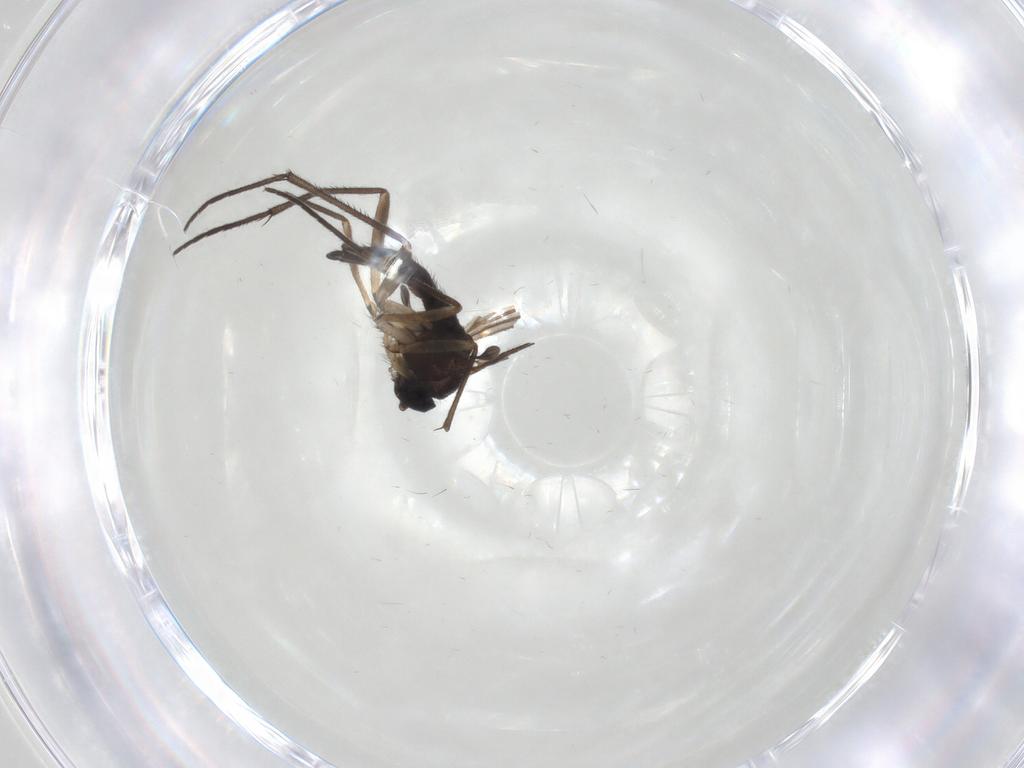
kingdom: Animalia
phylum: Arthropoda
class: Insecta
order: Diptera
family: Sciaridae
